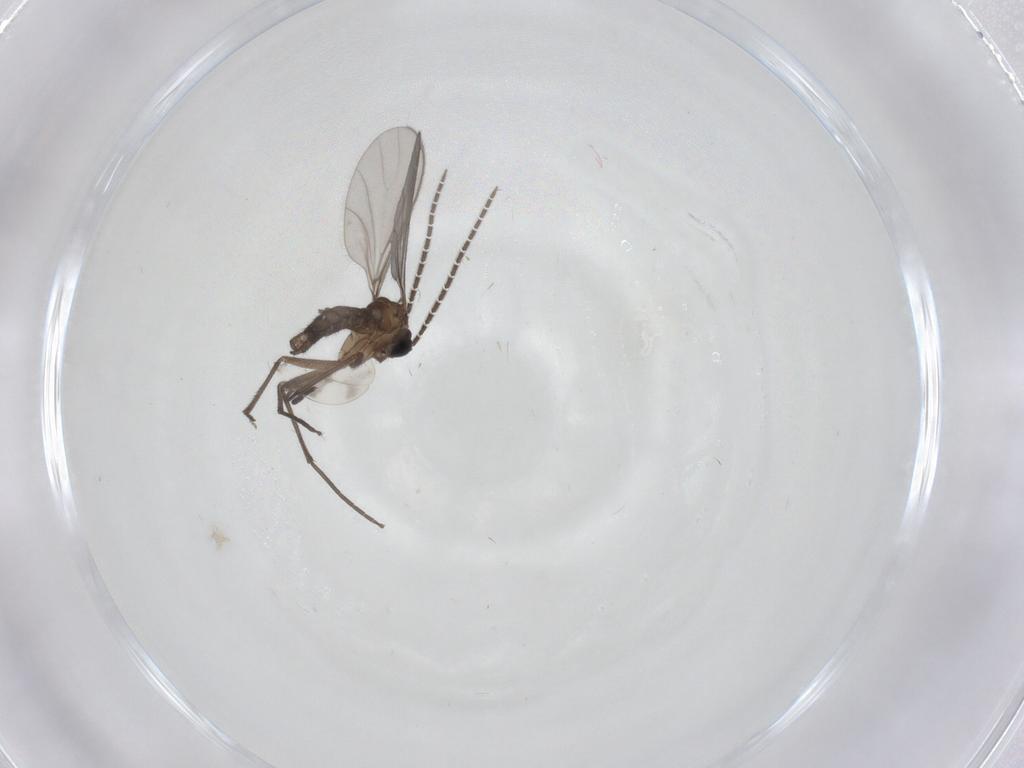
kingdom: Animalia
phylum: Arthropoda
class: Insecta
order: Diptera
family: Sciaridae
